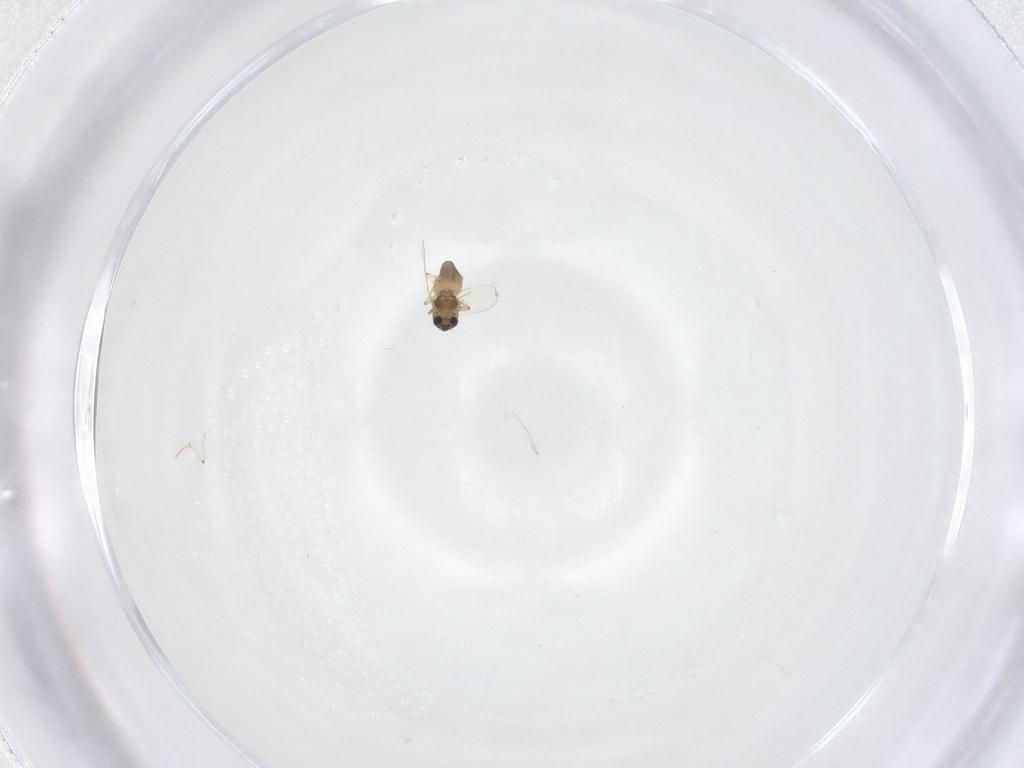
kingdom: Animalia
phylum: Arthropoda
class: Insecta
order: Diptera
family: Chironomidae
